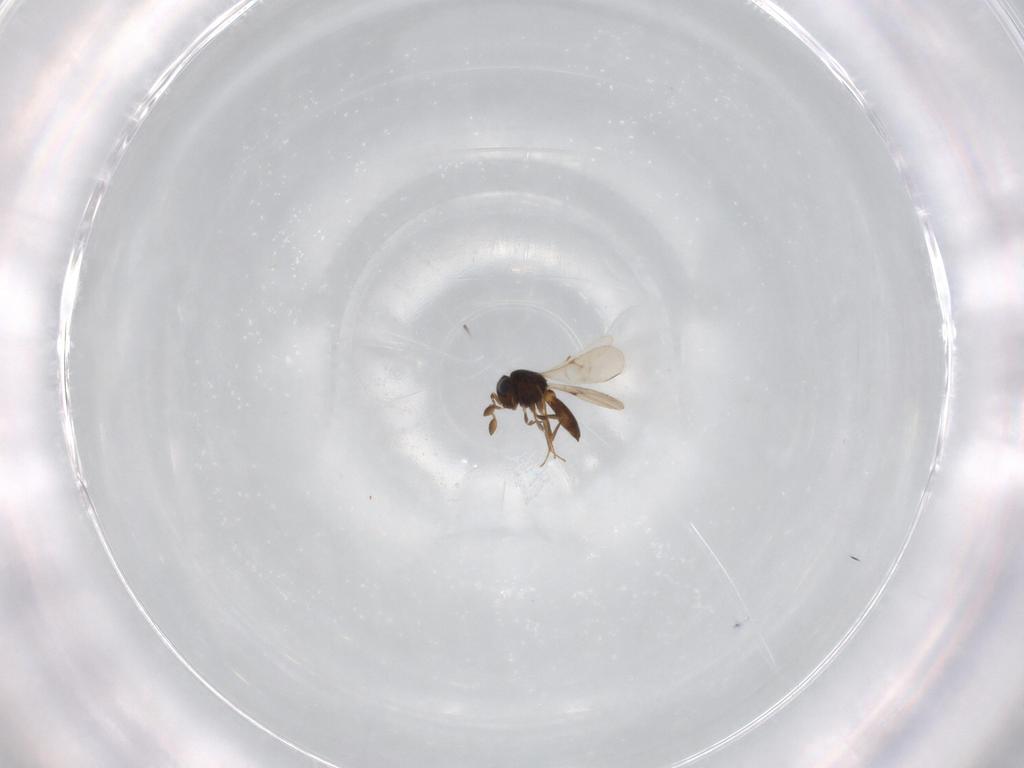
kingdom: Animalia
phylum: Arthropoda
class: Insecta
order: Hymenoptera
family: Scelionidae
